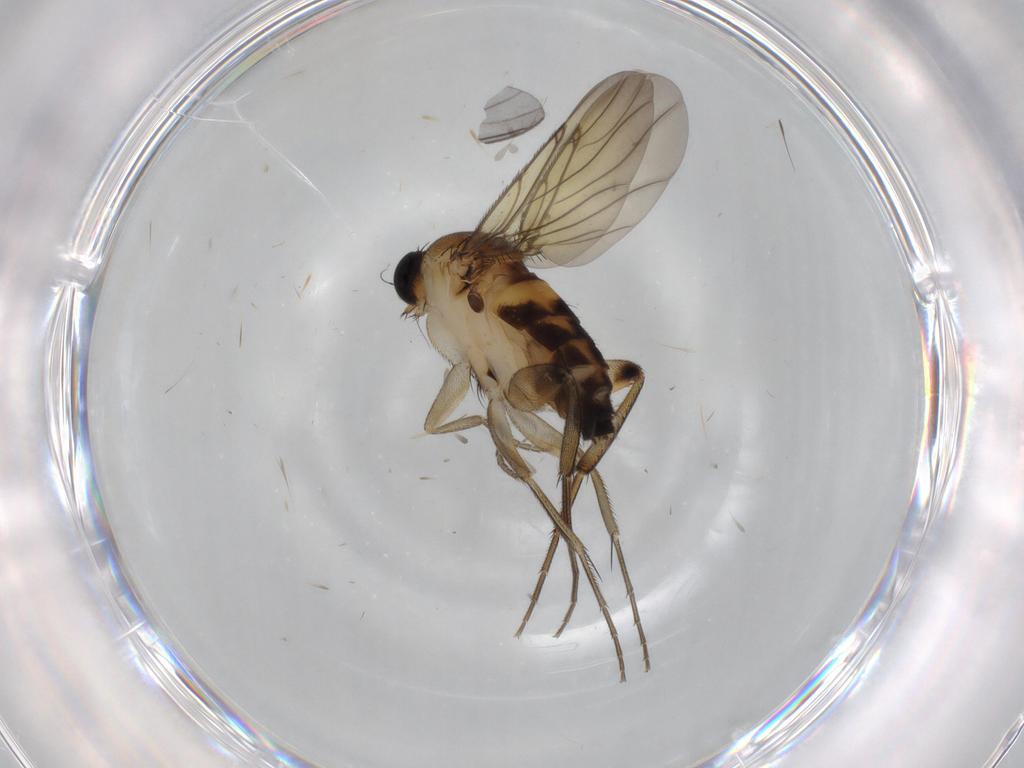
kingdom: Animalia
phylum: Arthropoda
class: Insecta
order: Diptera
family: Phoridae
